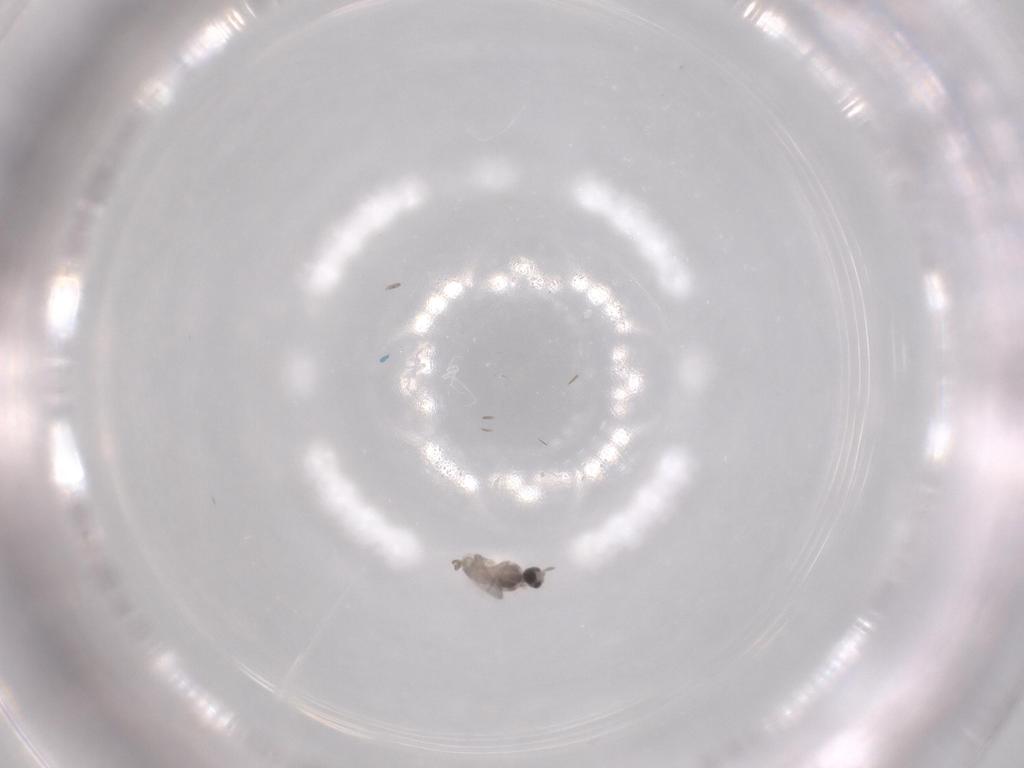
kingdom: Animalia
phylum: Arthropoda
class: Insecta
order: Diptera
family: Cecidomyiidae
